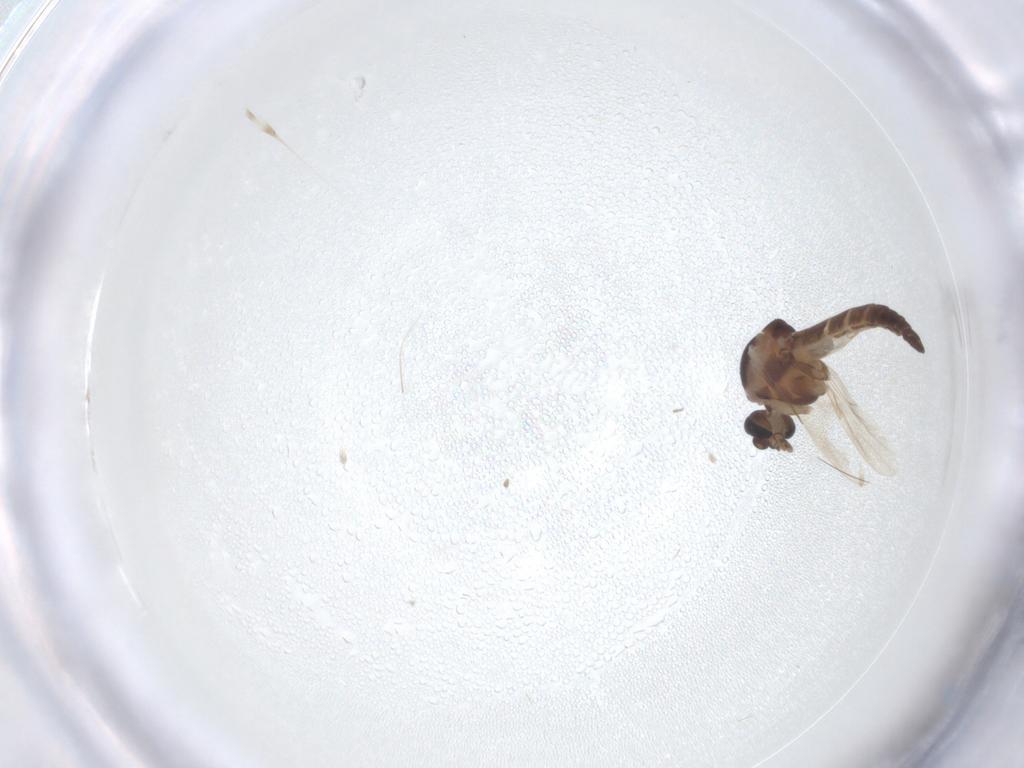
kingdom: Animalia
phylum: Arthropoda
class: Insecta
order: Diptera
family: Ceratopogonidae
